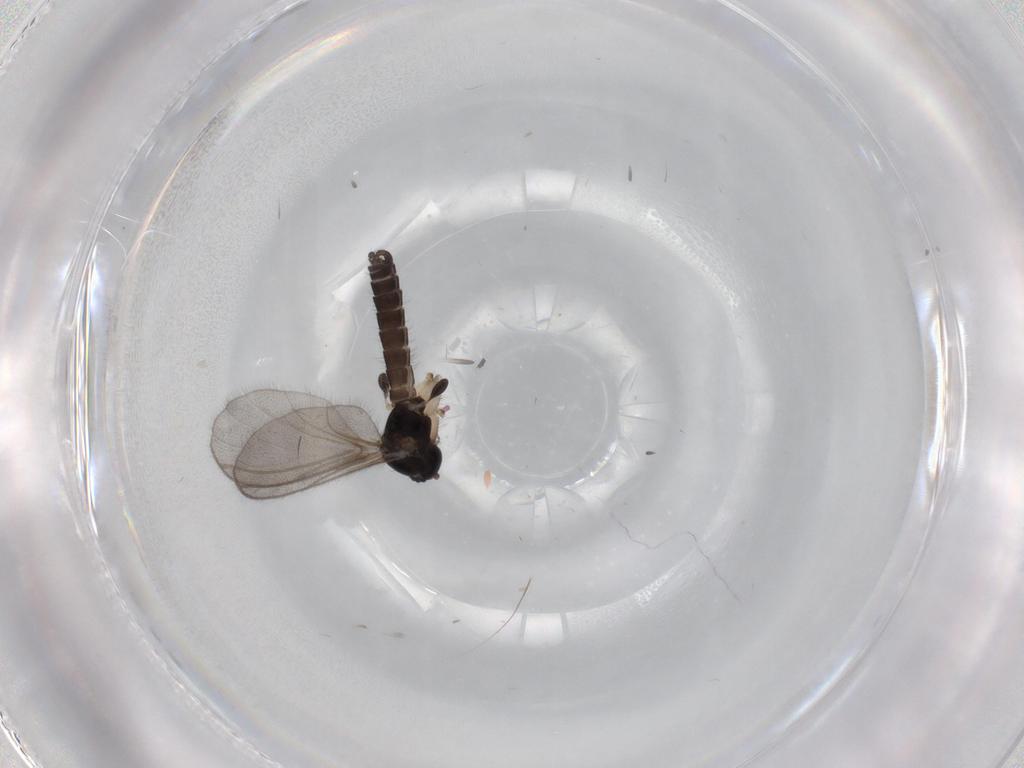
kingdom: Animalia
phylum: Arthropoda
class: Insecta
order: Diptera
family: Mycetophilidae
